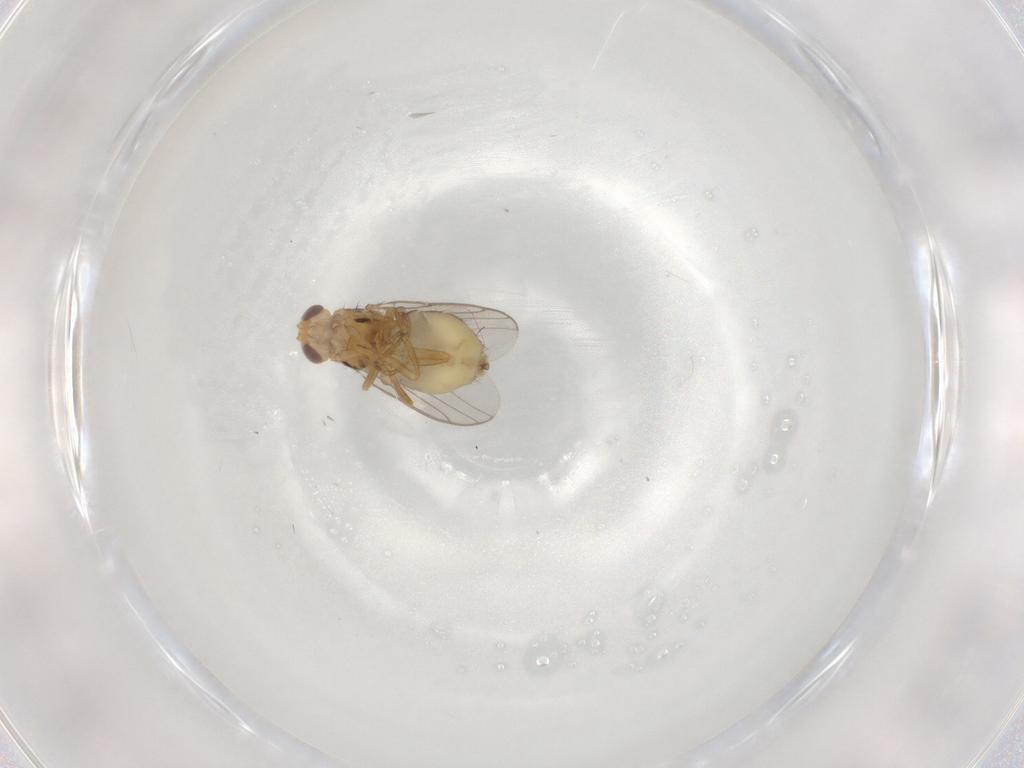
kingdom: Animalia
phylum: Arthropoda
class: Insecta
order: Diptera
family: Chloropidae
